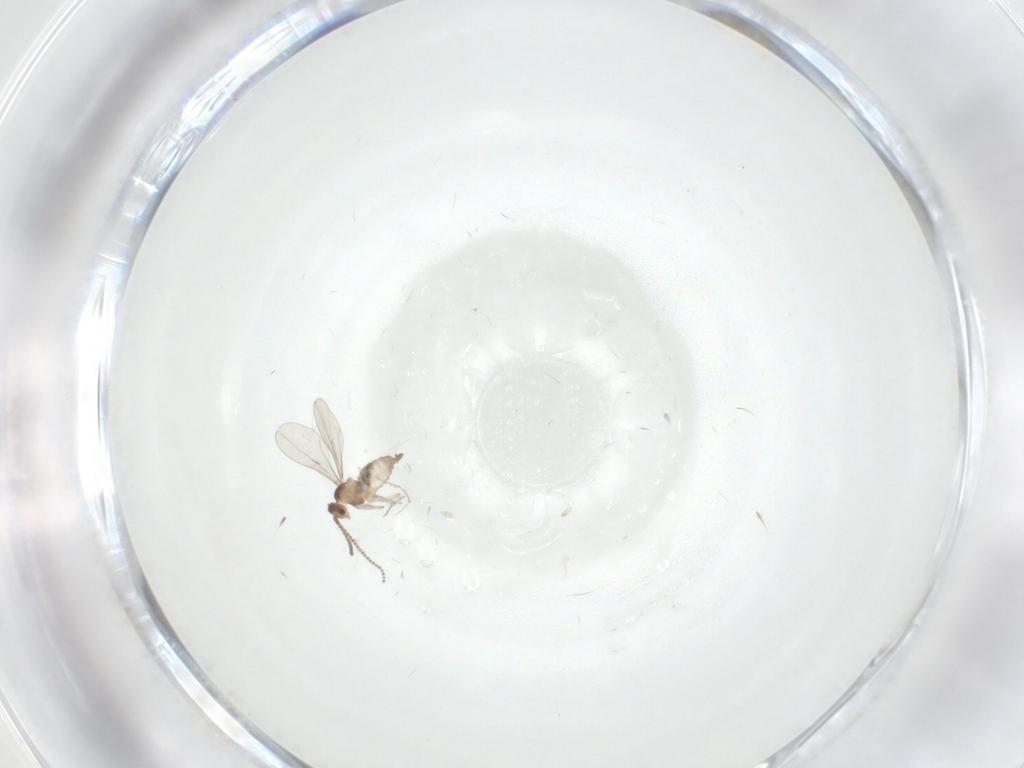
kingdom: Animalia
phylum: Arthropoda
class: Insecta
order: Diptera
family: Cecidomyiidae
